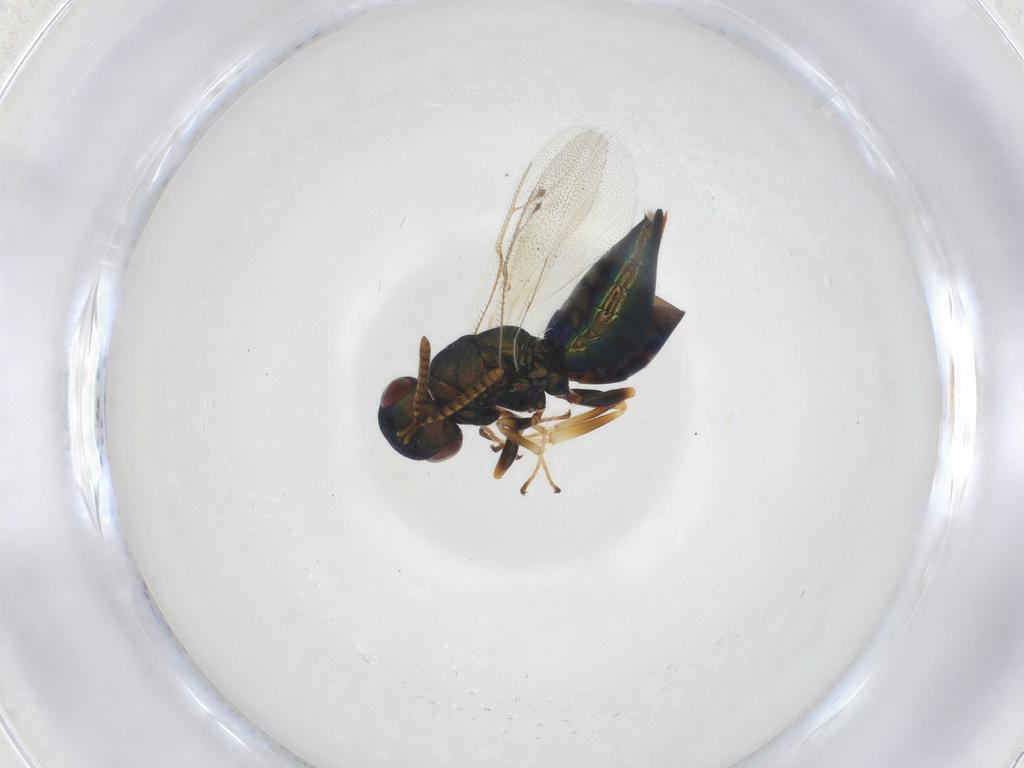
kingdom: Animalia
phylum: Arthropoda
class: Insecta
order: Hymenoptera
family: Pteromalidae
